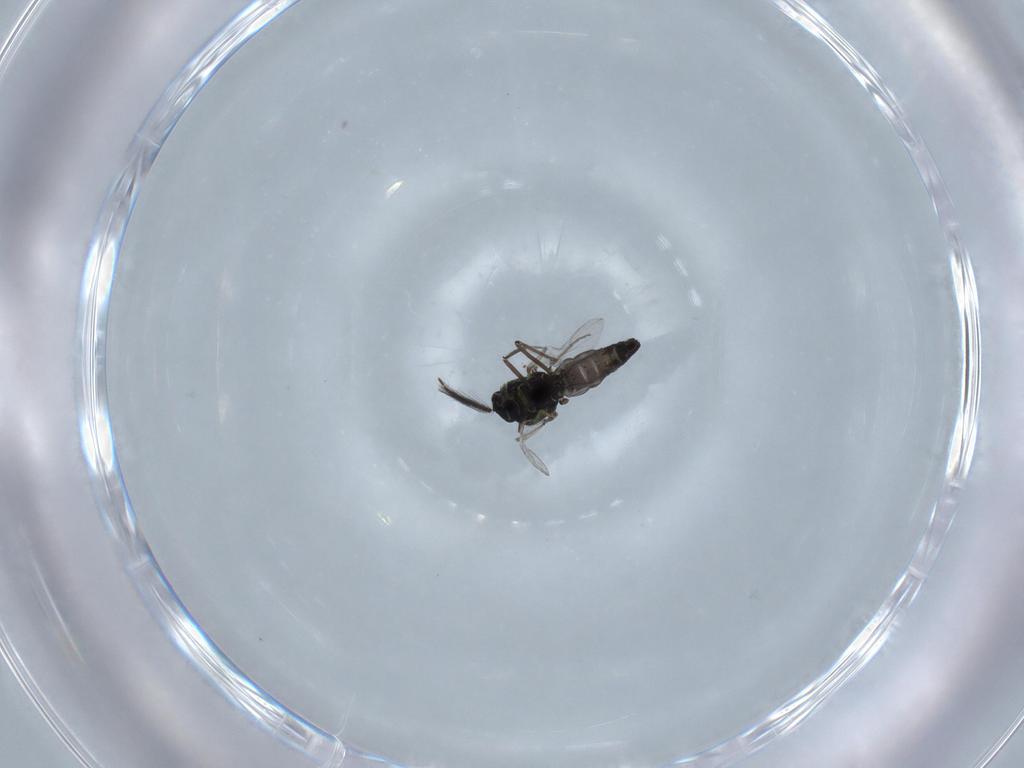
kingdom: Animalia
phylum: Arthropoda
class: Insecta
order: Diptera
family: Ceratopogonidae
